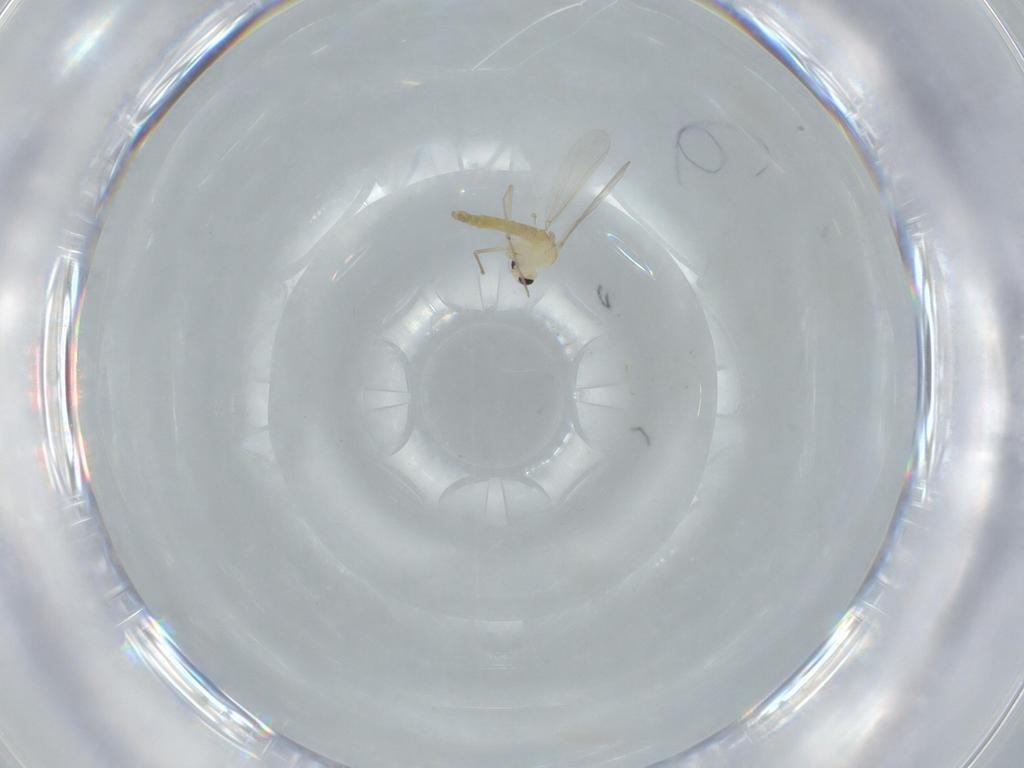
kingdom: Animalia
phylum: Arthropoda
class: Insecta
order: Diptera
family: Chironomidae
